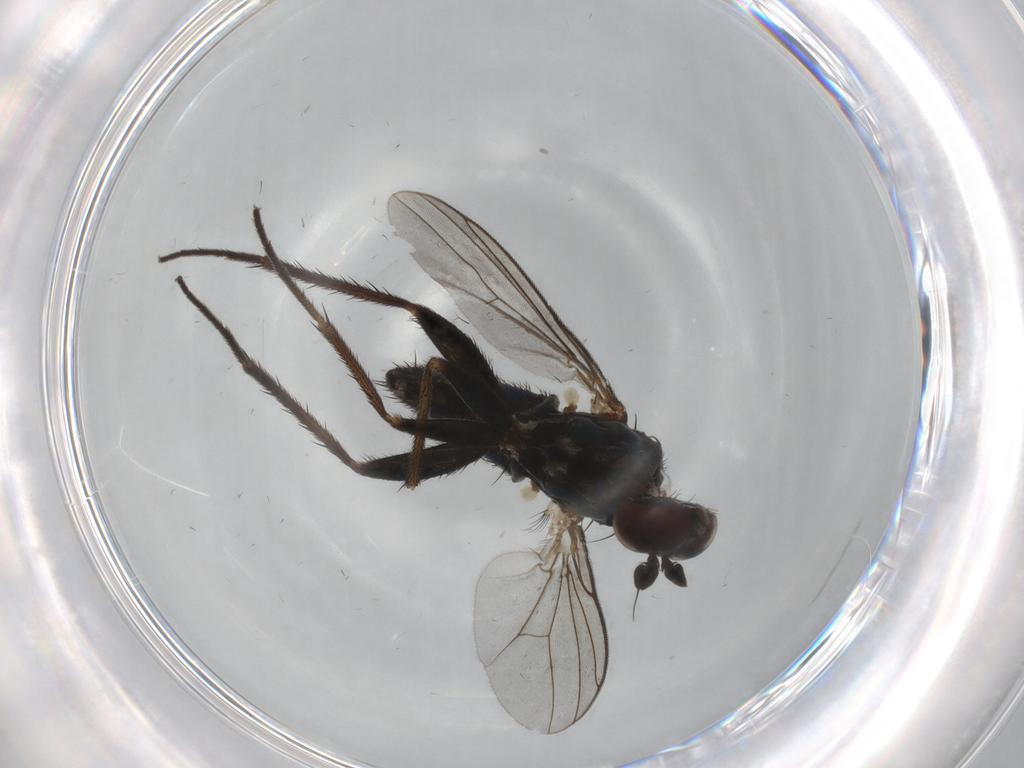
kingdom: Animalia
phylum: Arthropoda
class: Insecta
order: Diptera
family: Dolichopodidae
